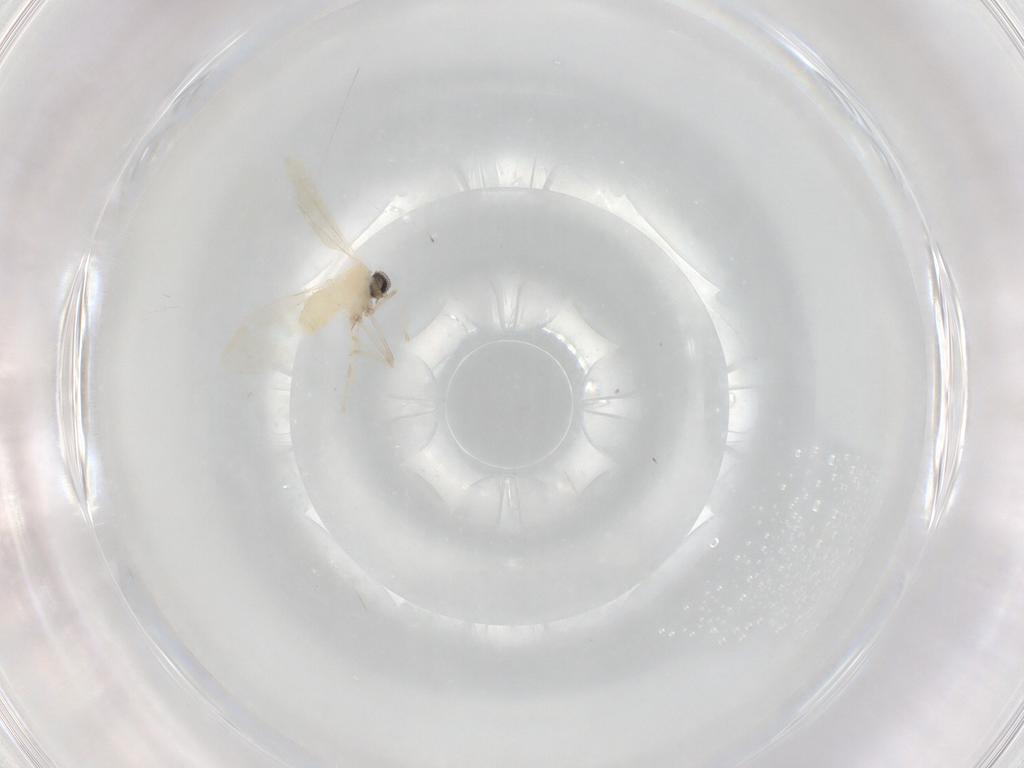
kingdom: Animalia
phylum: Arthropoda
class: Insecta
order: Diptera
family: Cecidomyiidae
